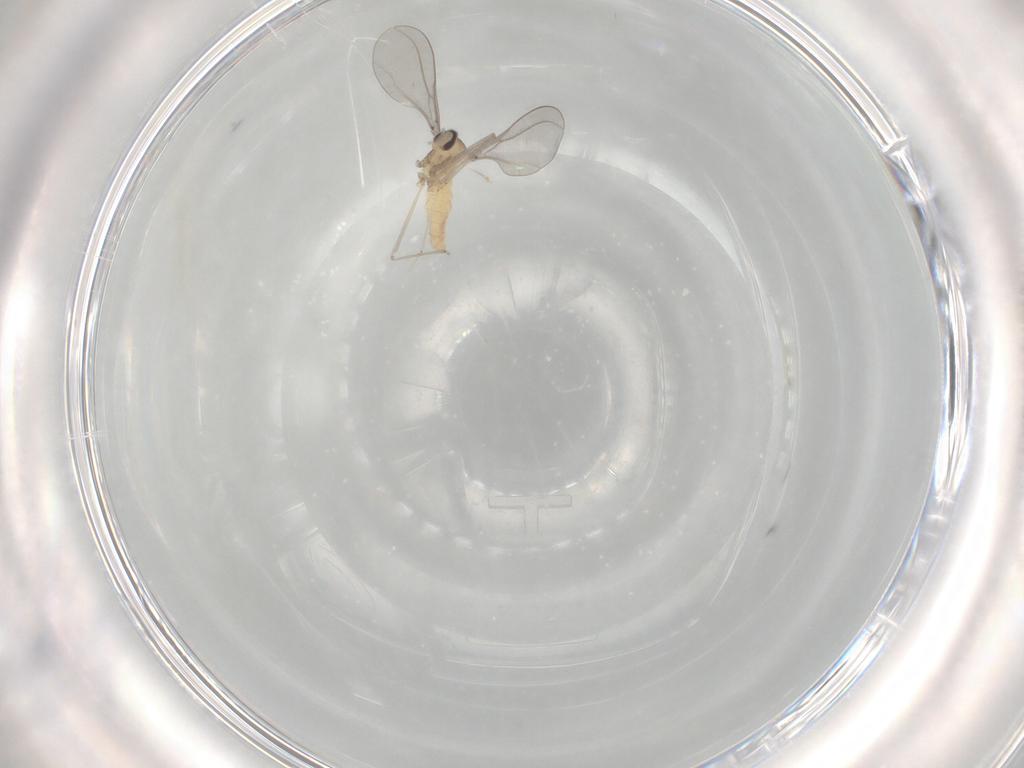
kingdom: Animalia
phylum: Arthropoda
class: Insecta
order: Diptera
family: Cecidomyiidae
